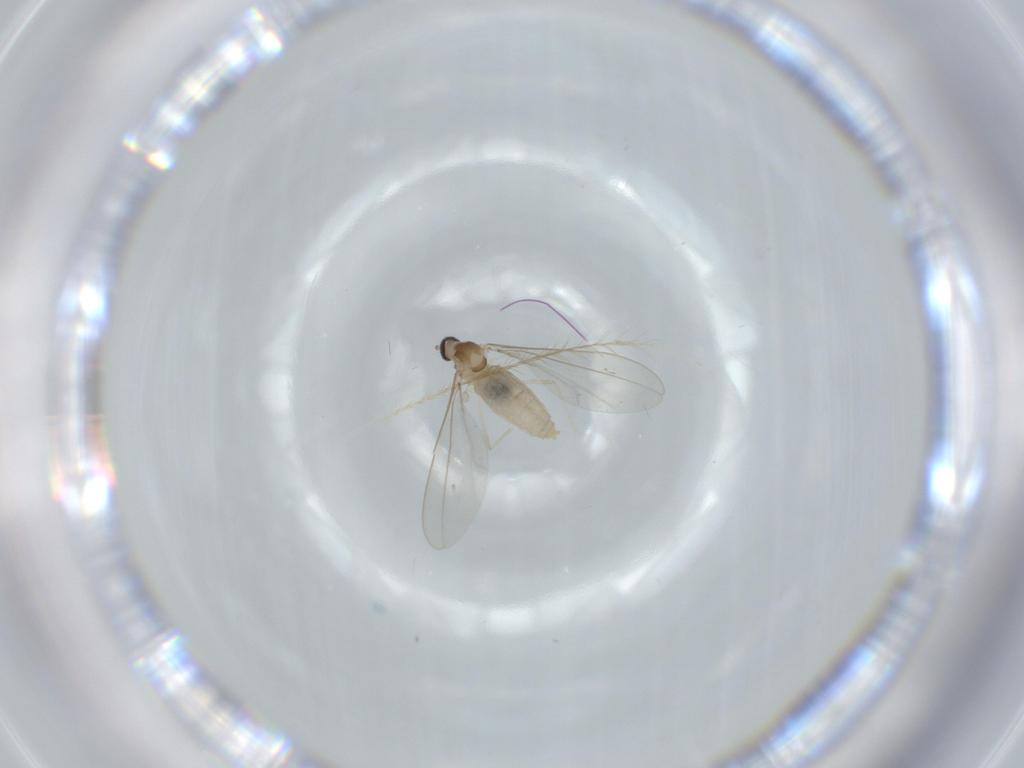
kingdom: Animalia
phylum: Arthropoda
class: Insecta
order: Diptera
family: Cecidomyiidae
